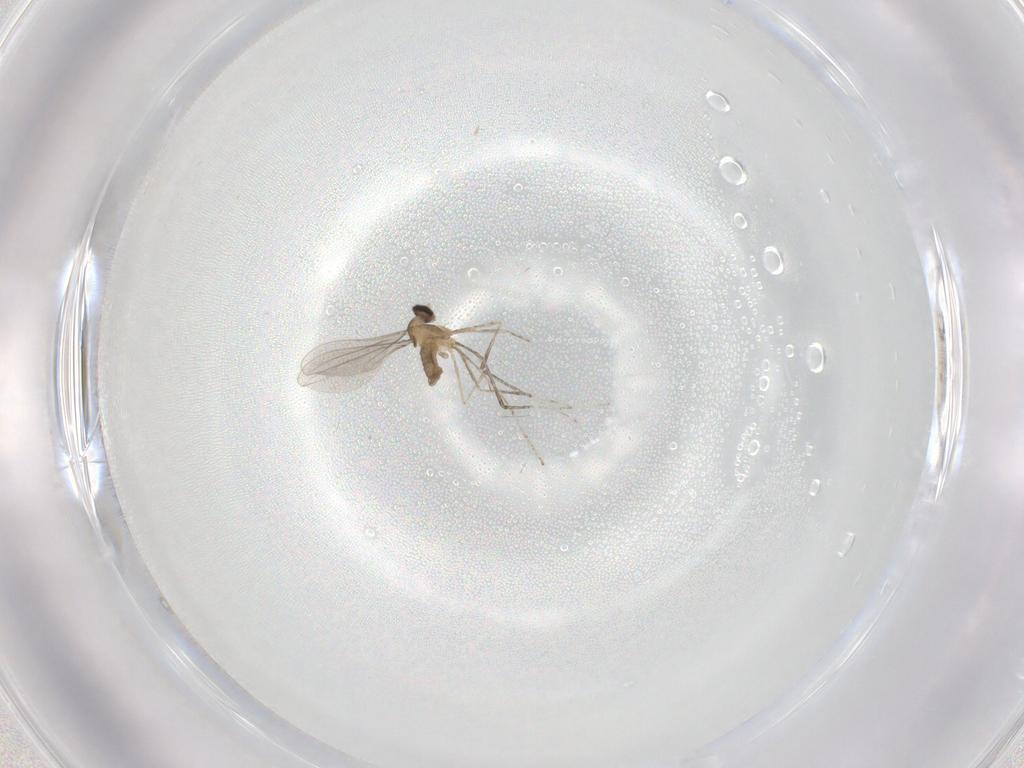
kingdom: Animalia
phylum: Arthropoda
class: Insecta
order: Diptera
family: Cecidomyiidae
